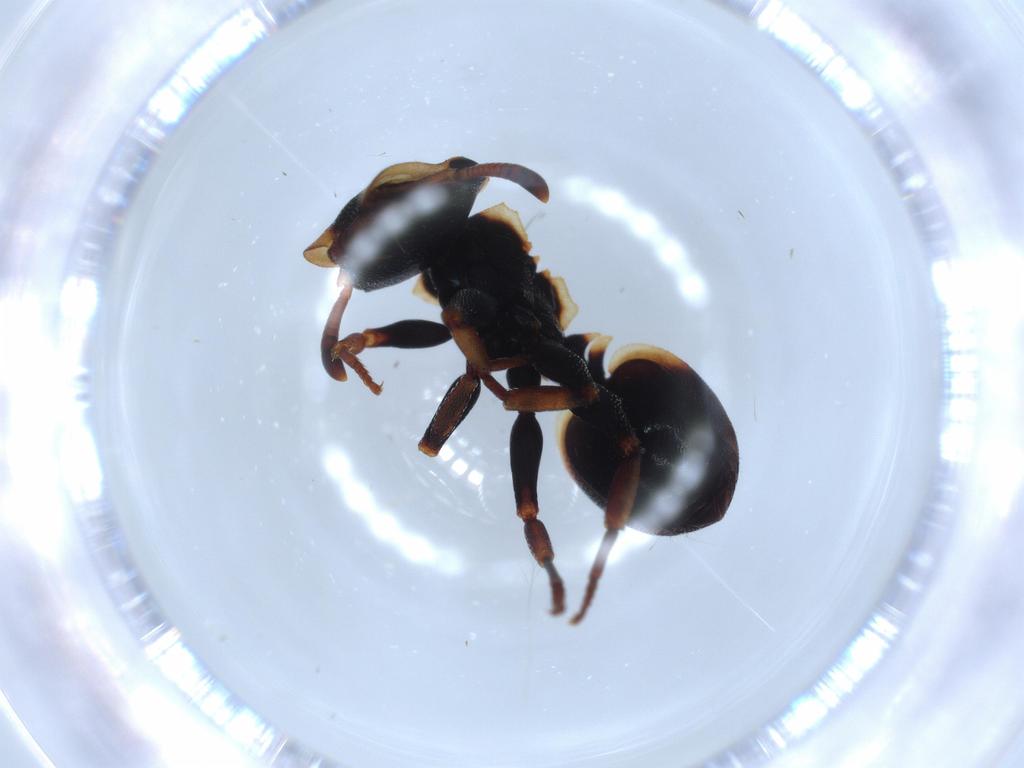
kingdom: Animalia
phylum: Arthropoda
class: Insecta
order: Hymenoptera
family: Formicidae
